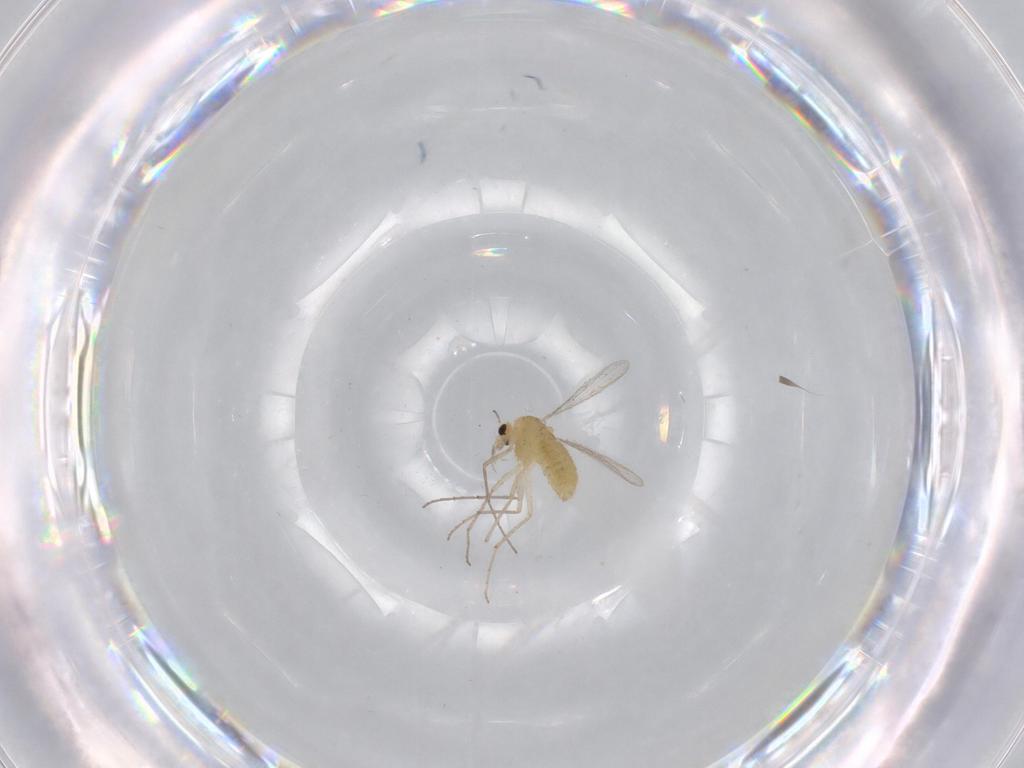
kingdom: Animalia
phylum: Arthropoda
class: Insecta
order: Diptera
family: Chironomidae
